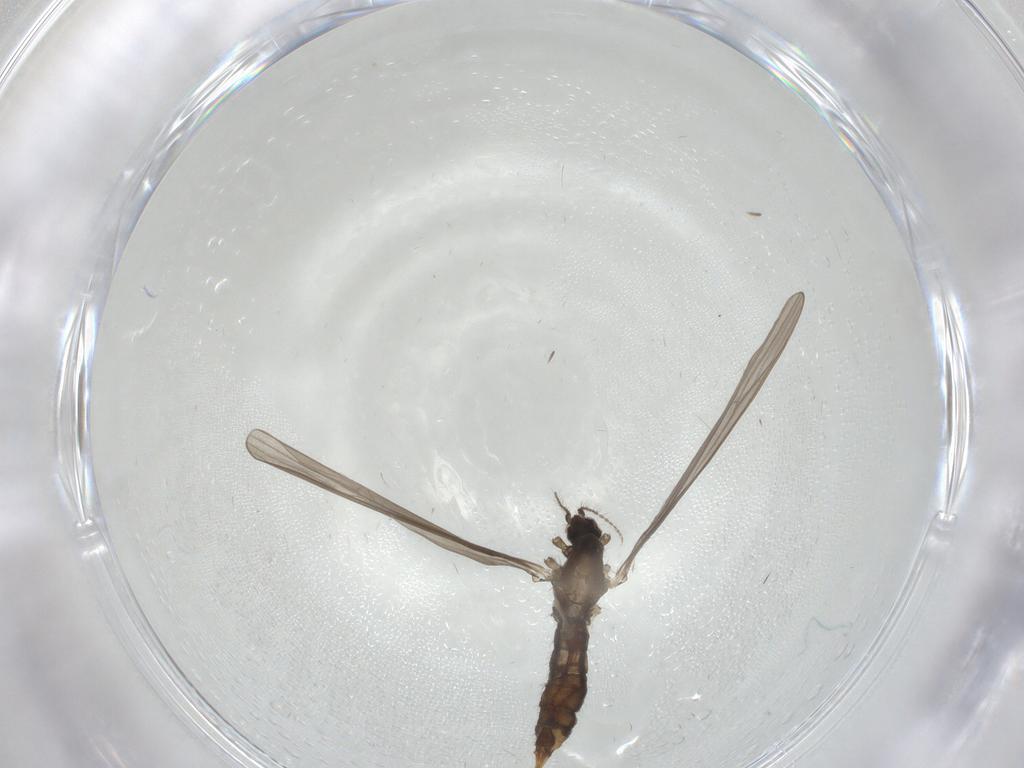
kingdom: Animalia
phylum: Arthropoda
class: Insecta
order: Diptera
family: Limoniidae
